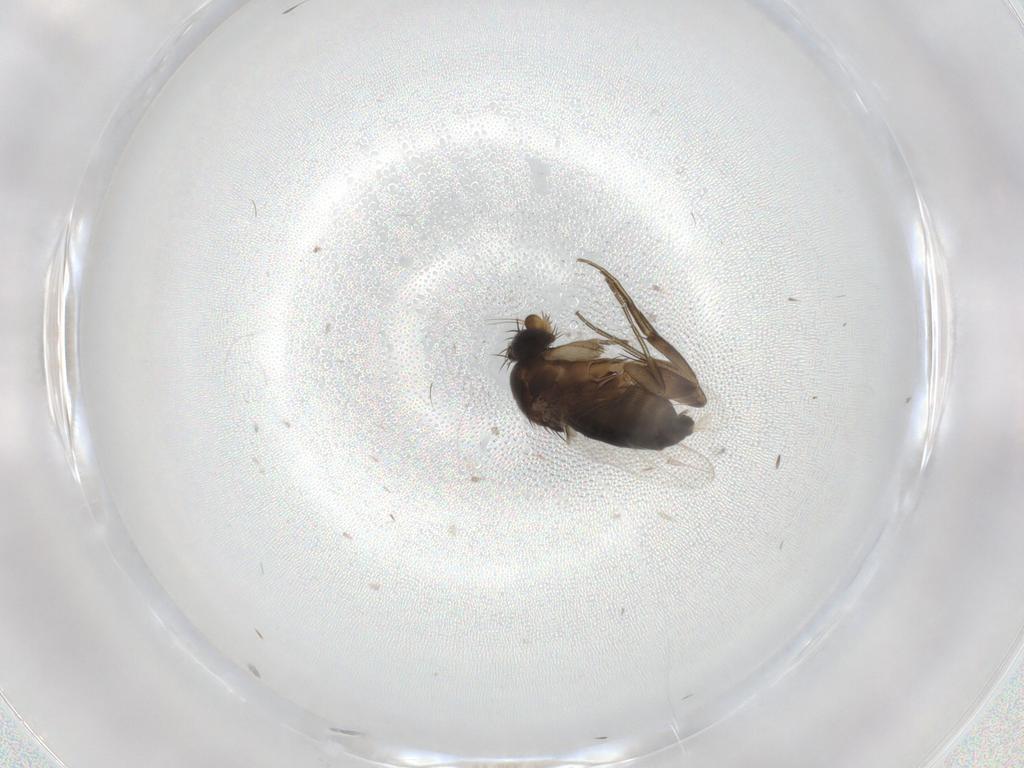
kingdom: Animalia
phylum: Arthropoda
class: Insecta
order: Diptera
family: Phoridae
